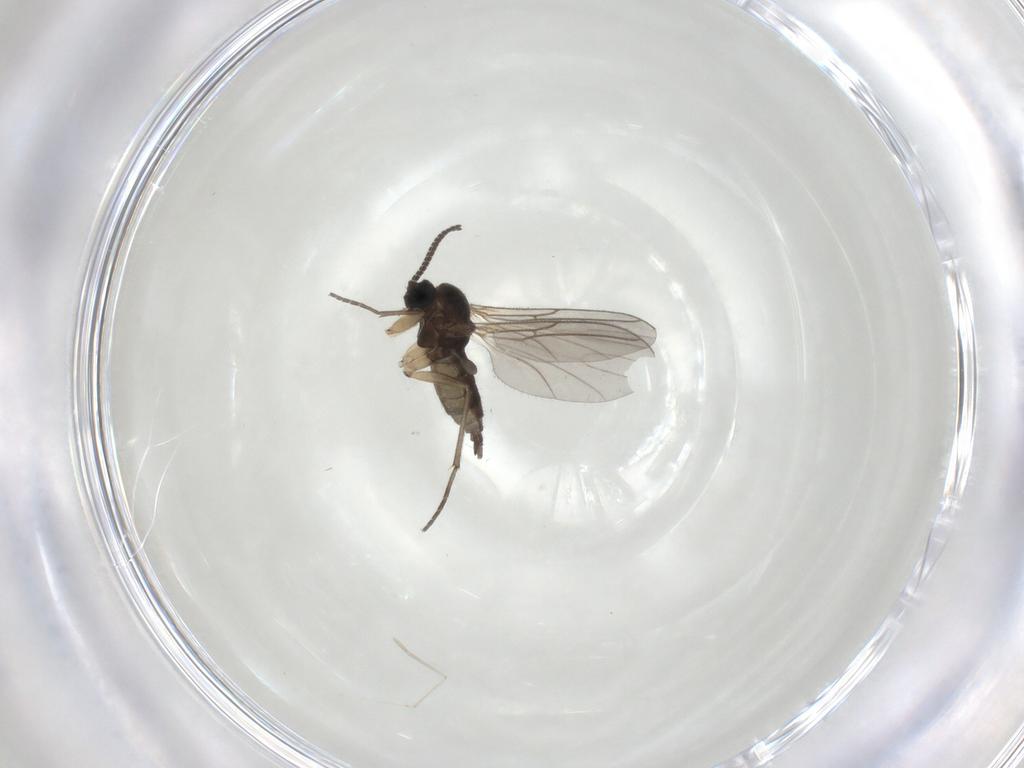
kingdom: Animalia
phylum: Arthropoda
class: Insecta
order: Diptera
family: Sciaridae
